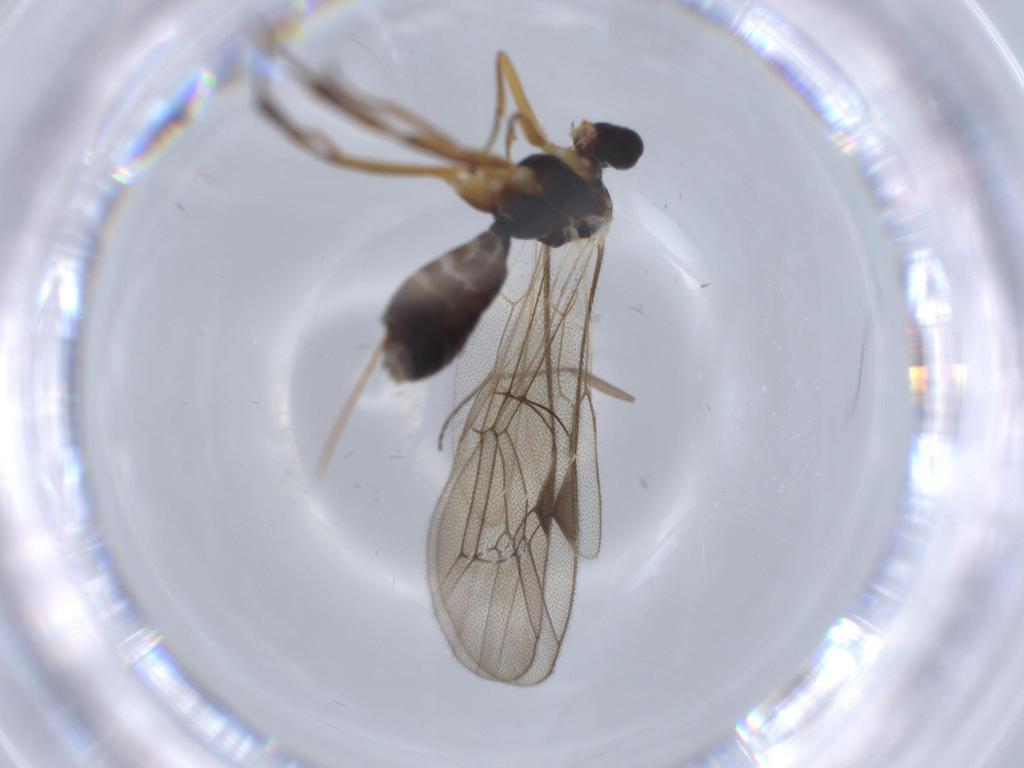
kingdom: Animalia
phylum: Arthropoda
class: Insecta
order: Hymenoptera
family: Ichneumonidae
